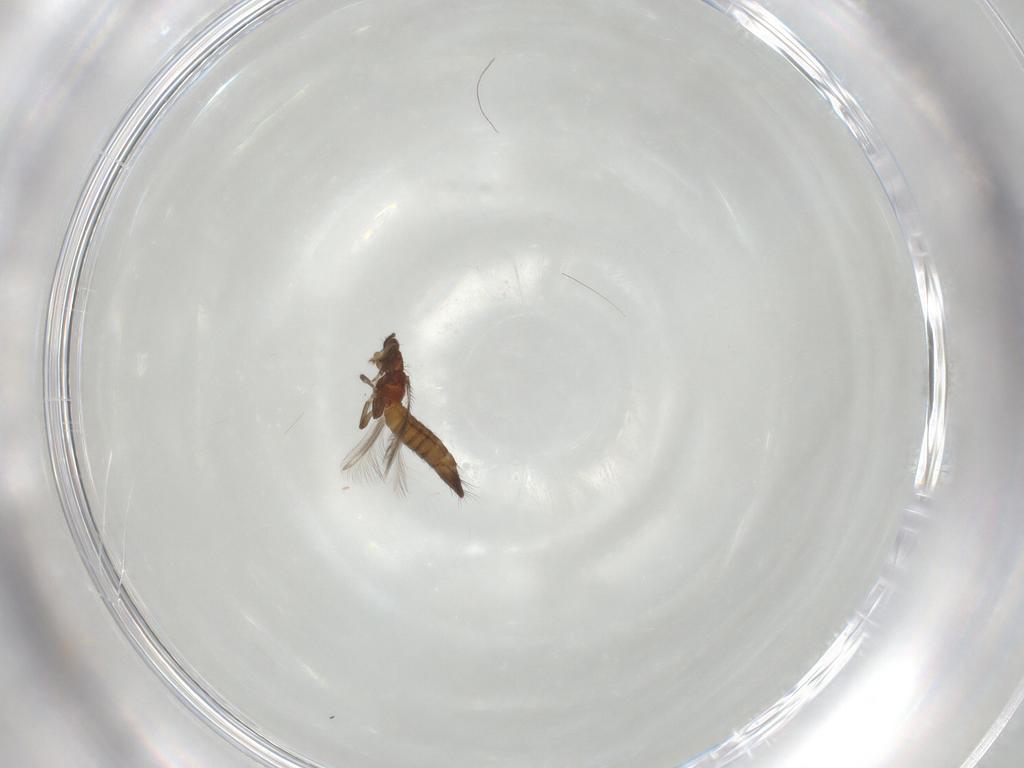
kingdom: Animalia
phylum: Arthropoda
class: Insecta
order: Thysanoptera
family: Thripidae
